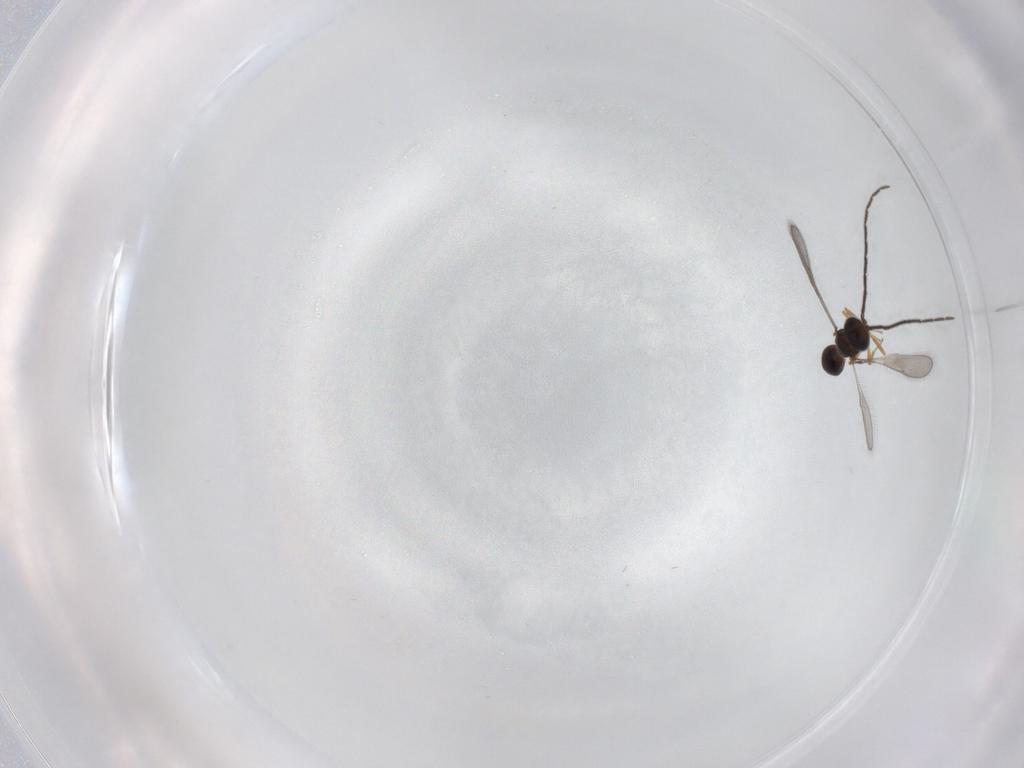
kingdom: Animalia
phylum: Arthropoda
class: Insecta
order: Hymenoptera
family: Scelionidae
